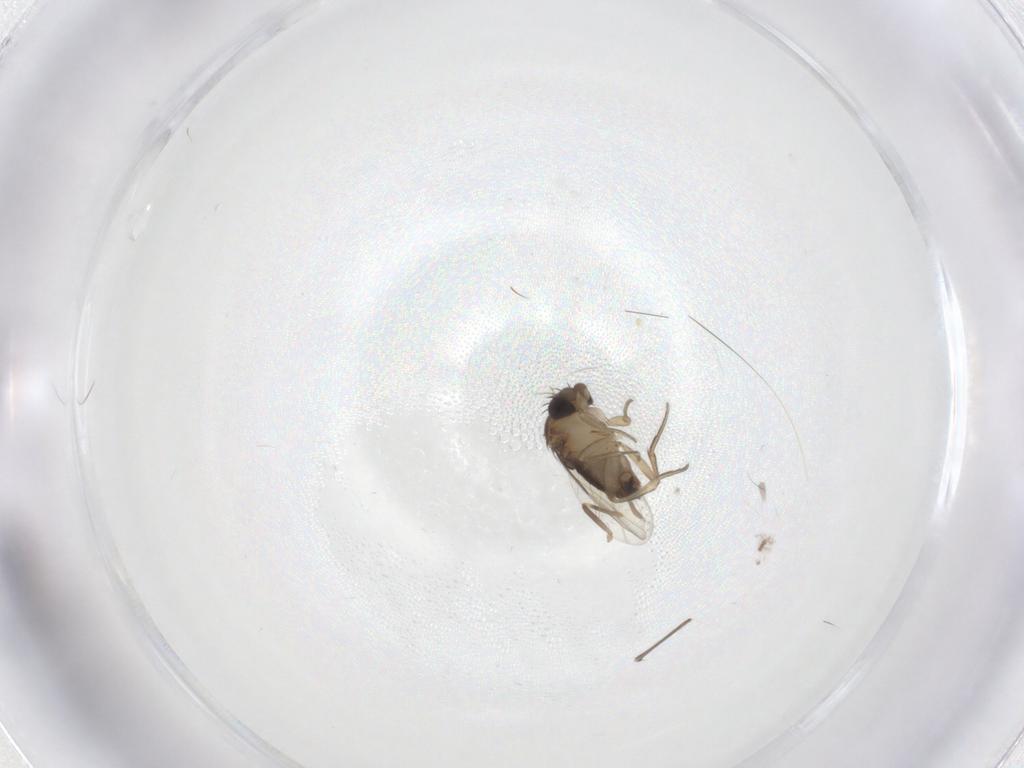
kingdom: Animalia
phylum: Arthropoda
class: Insecta
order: Diptera
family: Sciaridae
